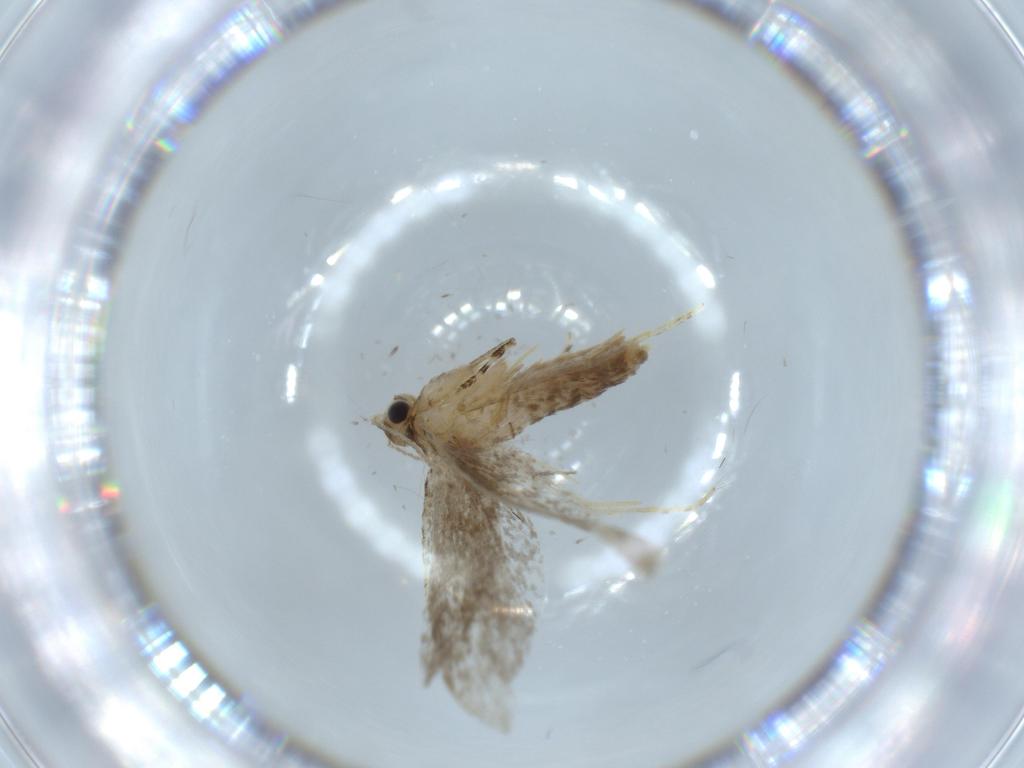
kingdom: Animalia
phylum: Arthropoda
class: Insecta
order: Lepidoptera
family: Tineidae
